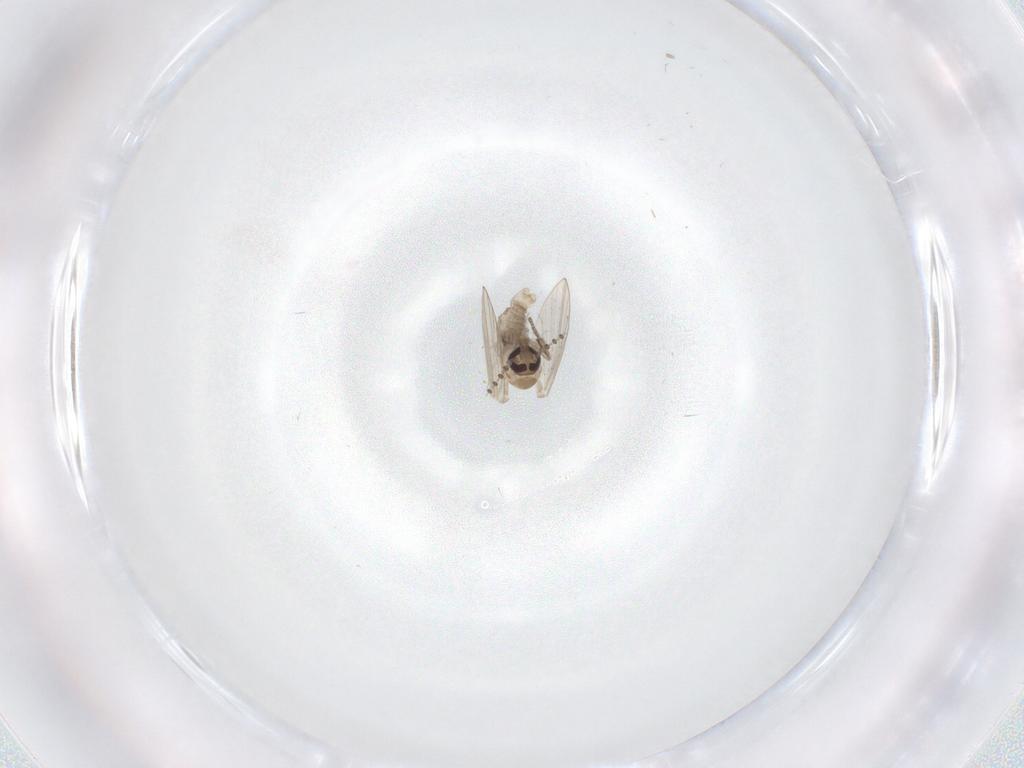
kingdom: Animalia
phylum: Arthropoda
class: Insecta
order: Diptera
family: Psychodidae
